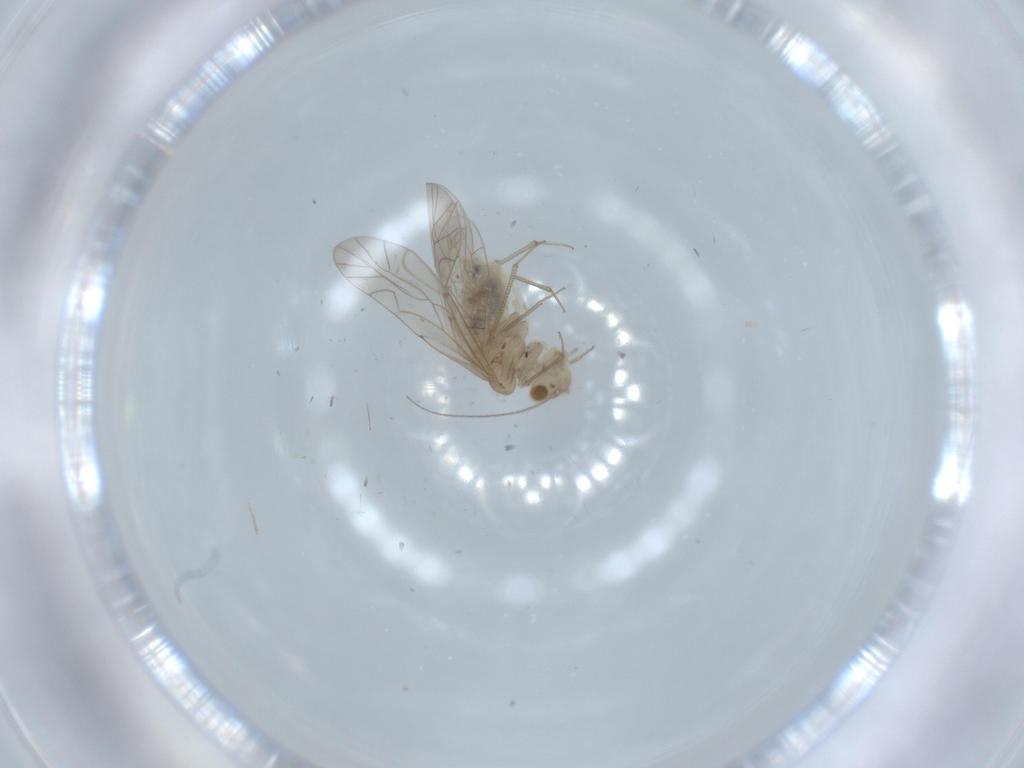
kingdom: Animalia
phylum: Arthropoda
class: Insecta
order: Psocodea
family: Lachesillidae
